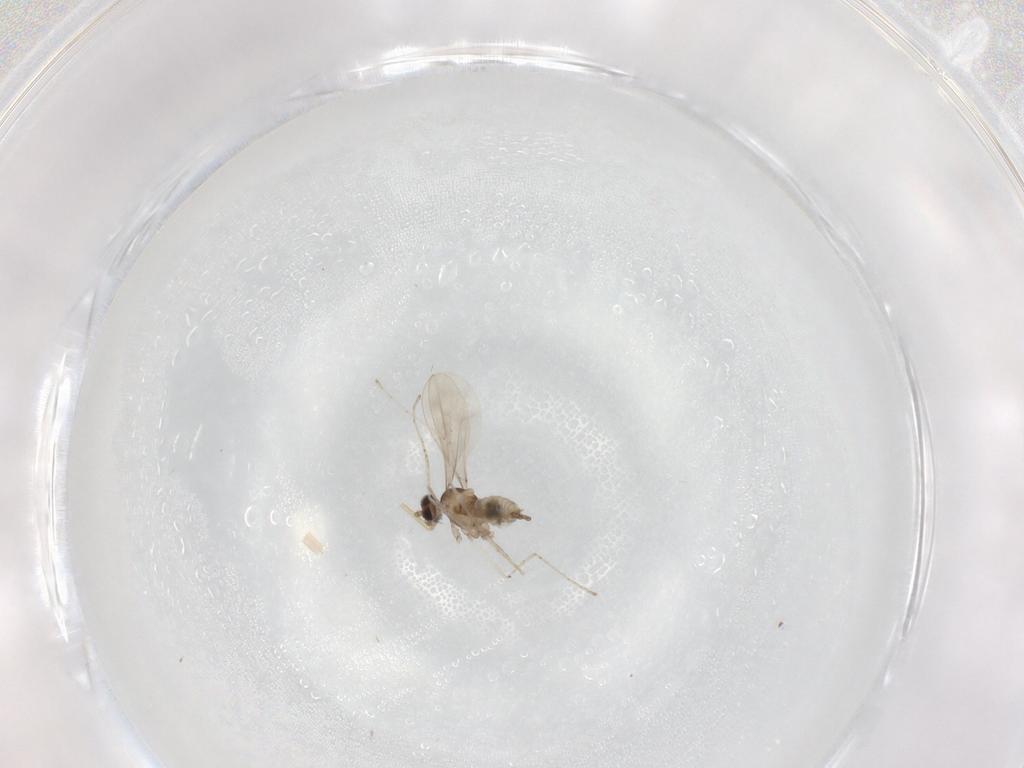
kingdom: Animalia
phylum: Arthropoda
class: Insecta
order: Diptera
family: Cecidomyiidae
